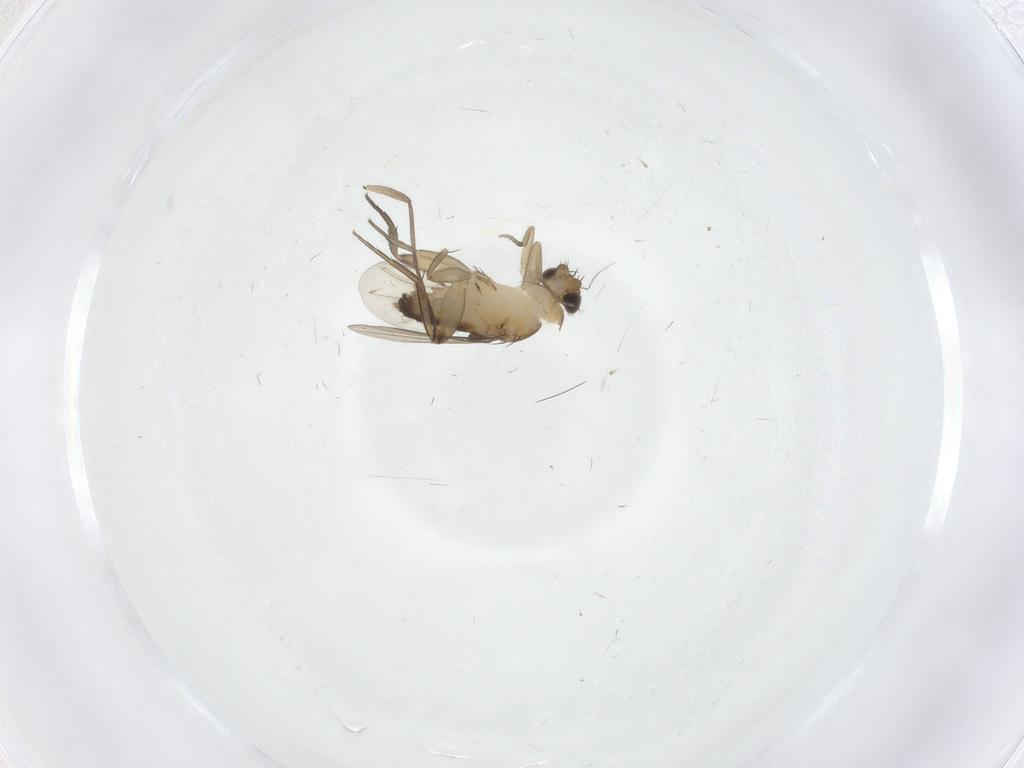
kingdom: Animalia
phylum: Arthropoda
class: Insecta
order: Diptera
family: Phoridae
